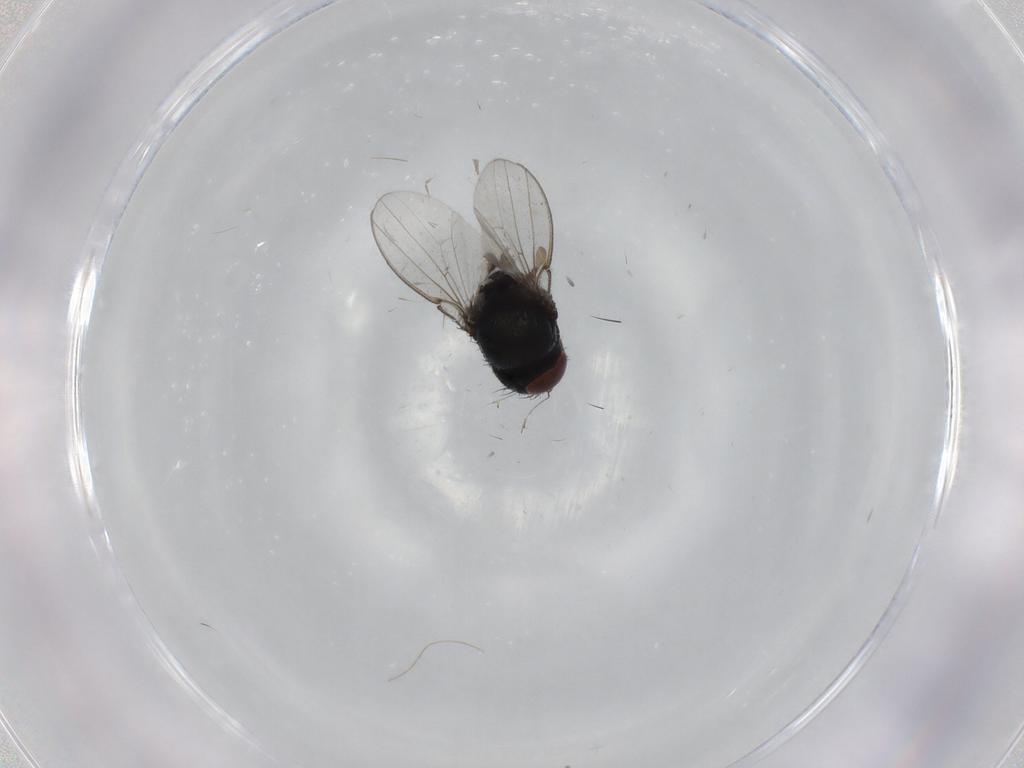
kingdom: Animalia
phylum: Arthropoda
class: Insecta
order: Diptera
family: Milichiidae
